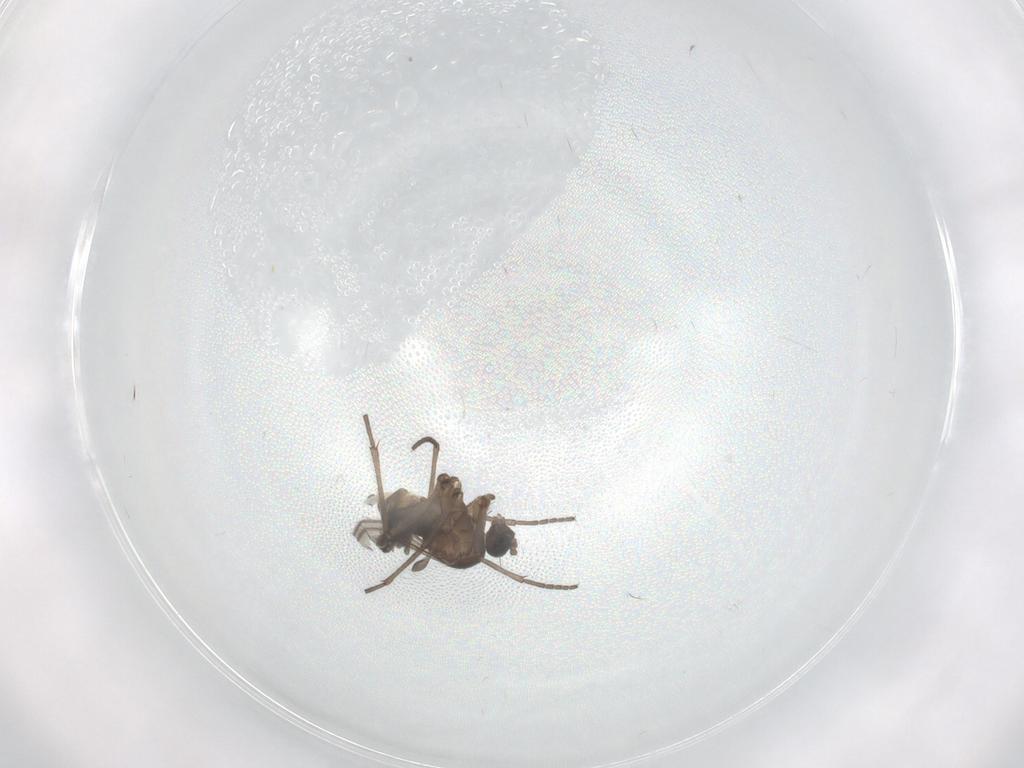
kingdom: Animalia
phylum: Arthropoda
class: Insecta
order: Diptera
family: Sciaridae
